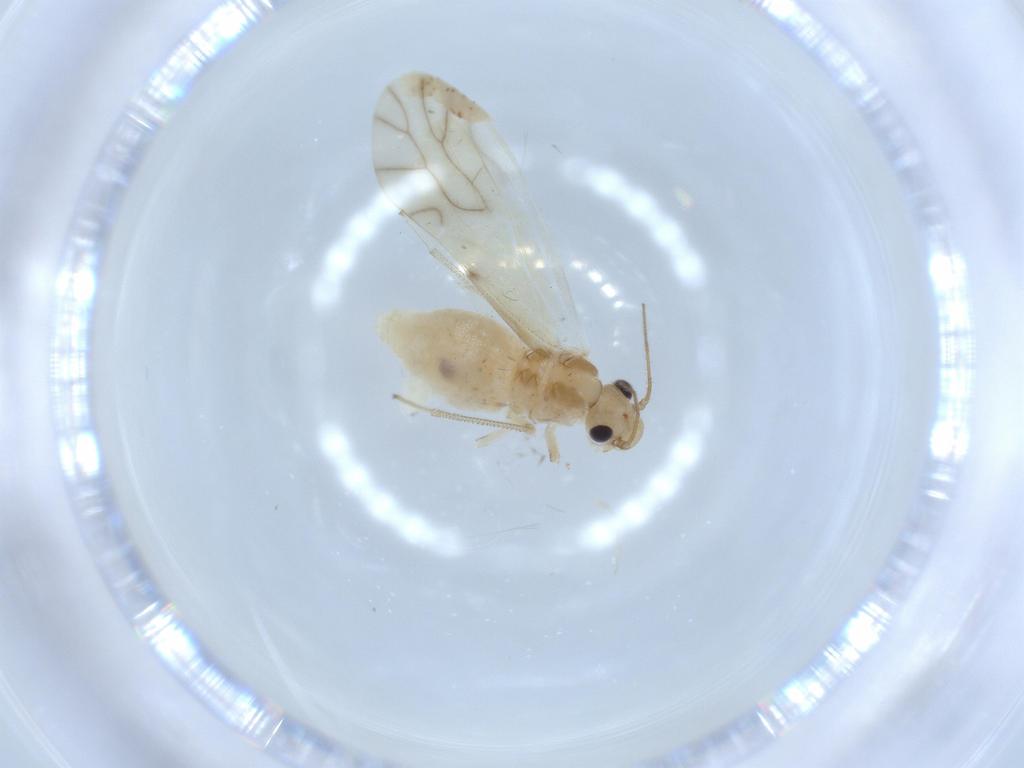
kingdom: Animalia
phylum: Arthropoda
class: Insecta
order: Psocodea
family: Caeciliusidae
